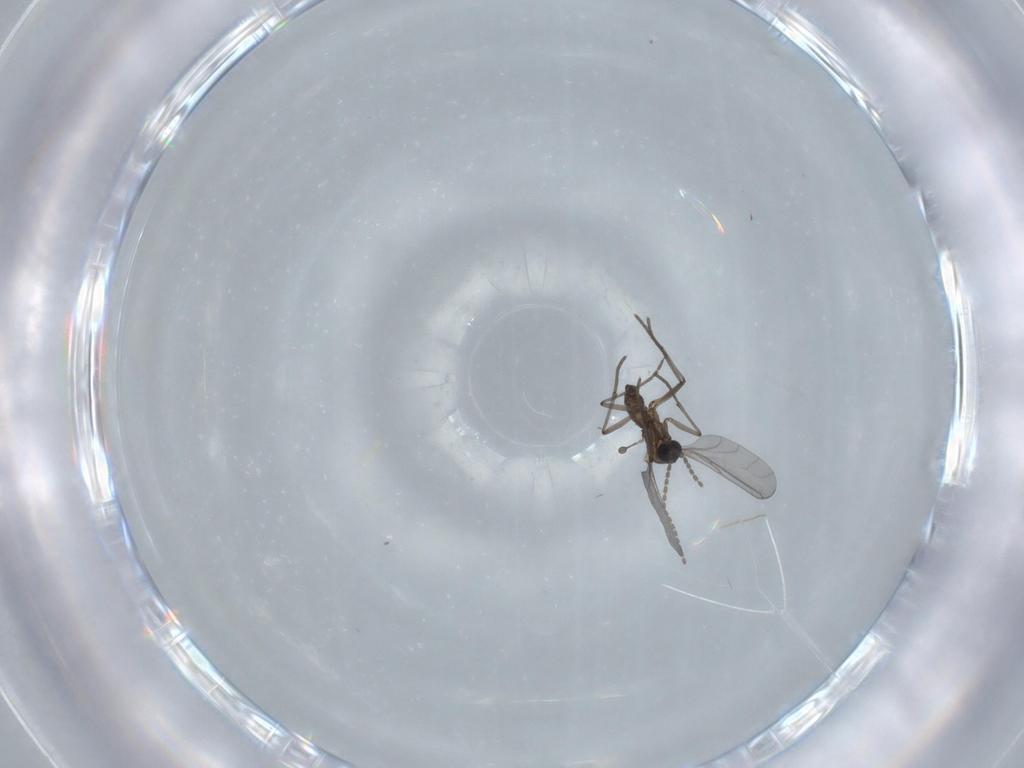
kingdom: Animalia
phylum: Arthropoda
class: Insecta
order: Diptera
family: Sciaridae
